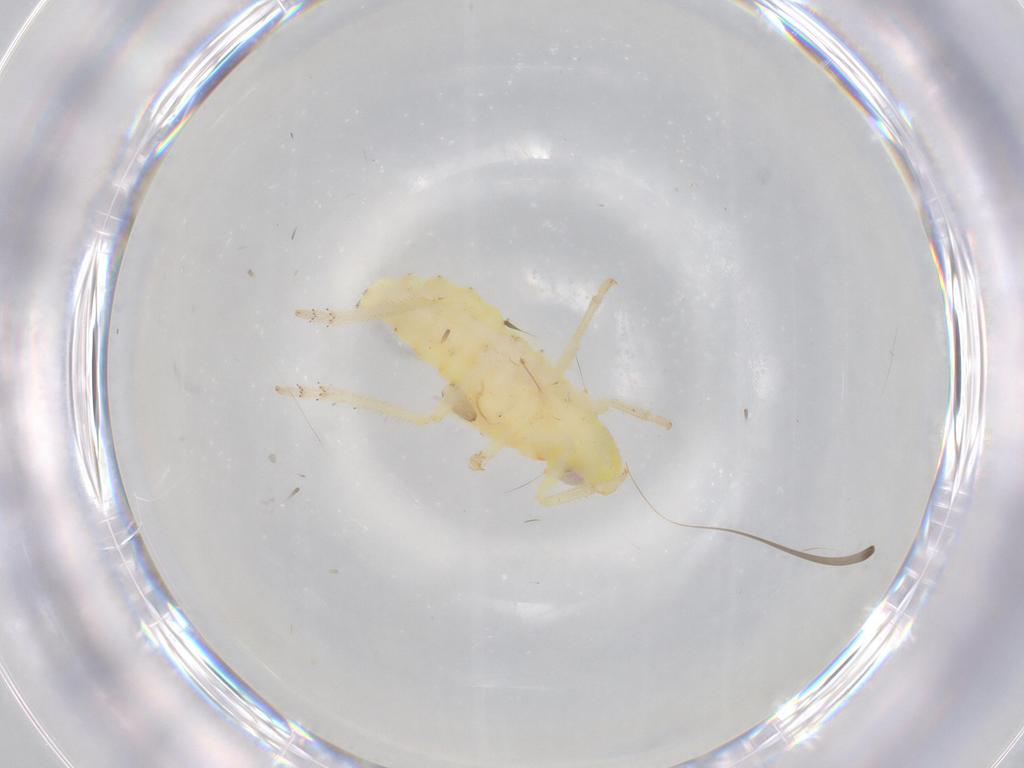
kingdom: Animalia
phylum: Arthropoda
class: Insecta
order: Hemiptera
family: Tropiduchidae
